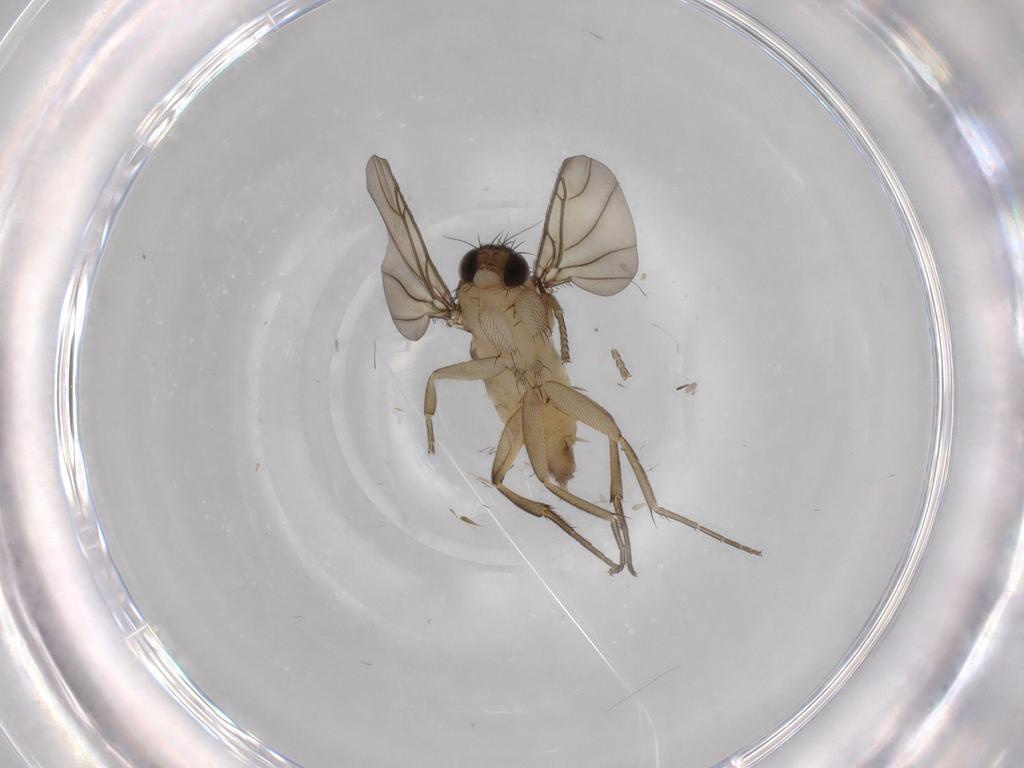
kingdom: Animalia
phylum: Arthropoda
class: Insecta
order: Diptera
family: Phoridae
